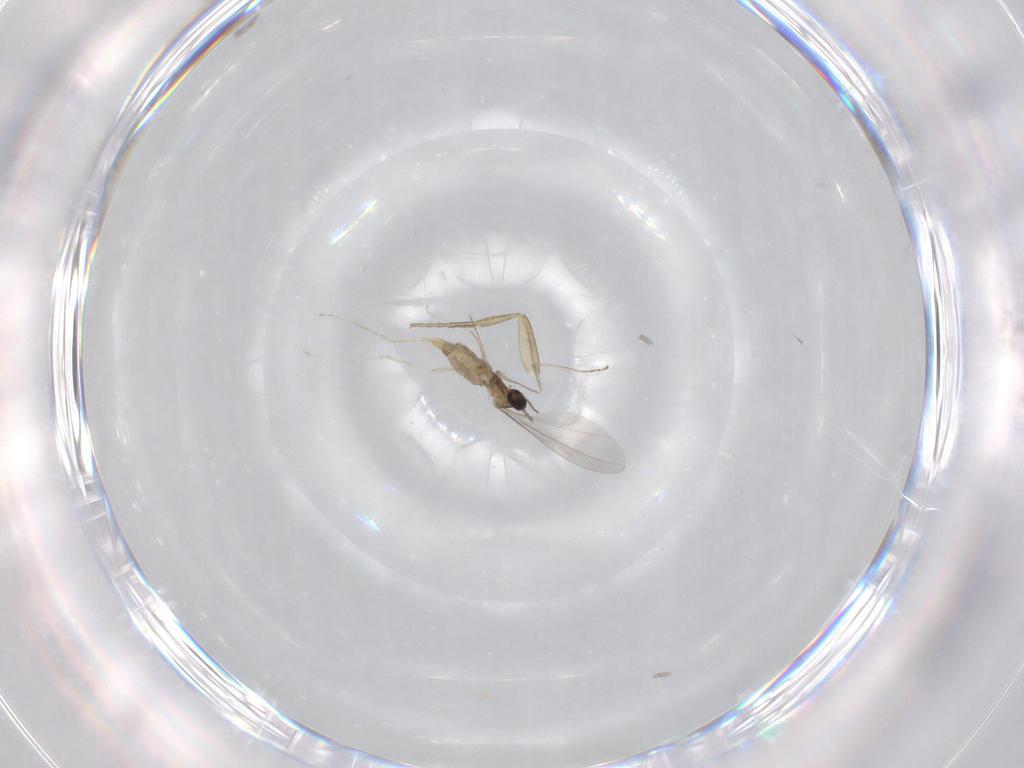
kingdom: Animalia
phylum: Arthropoda
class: Insecta
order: Diptera
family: Cecidomyiidae
